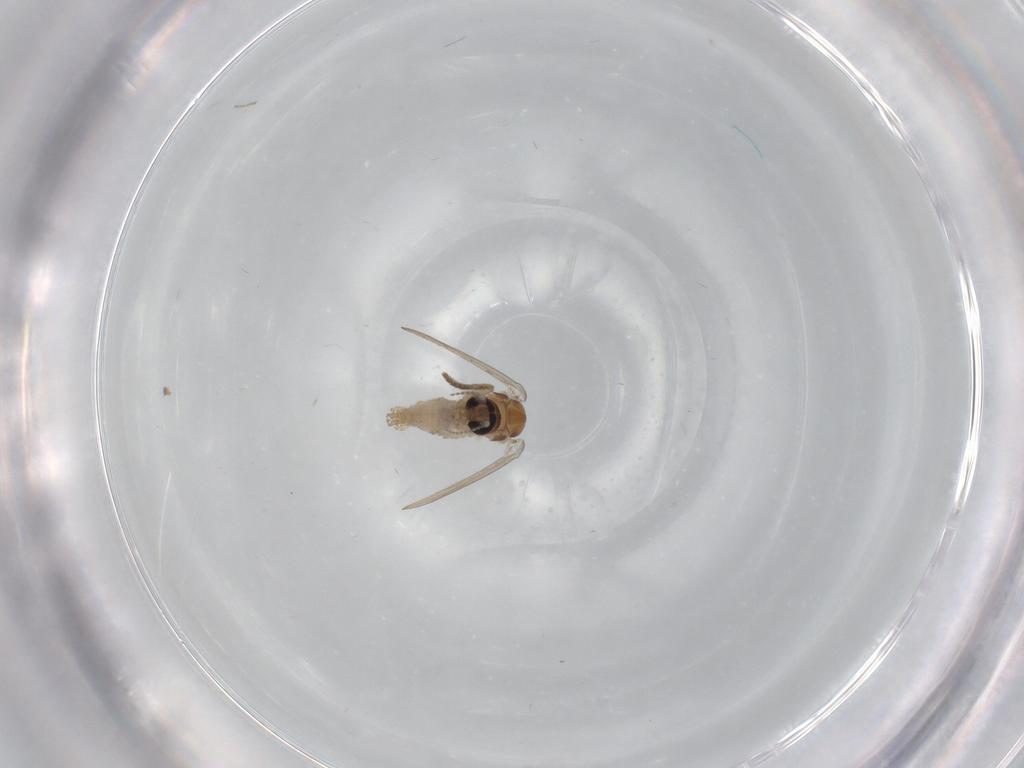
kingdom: Animalia
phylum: Arthropoda
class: Insecta
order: Diptera
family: Psychodidae
